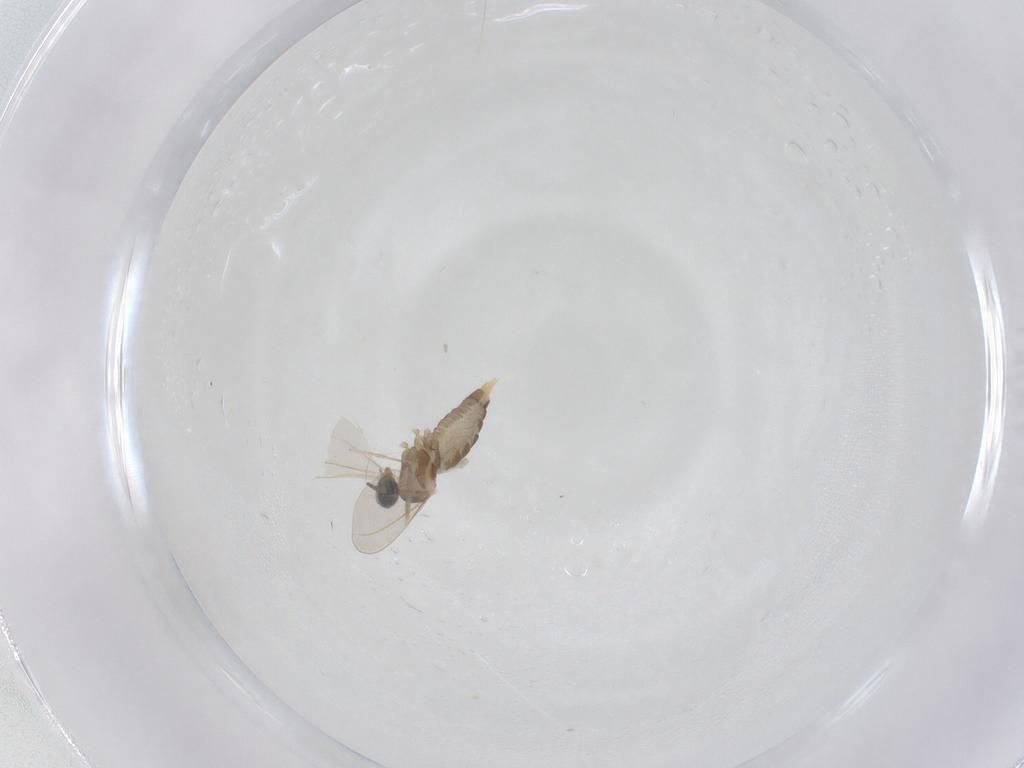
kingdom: Animalia
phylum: Arthropoda
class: Insecta
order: Diptera
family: Cecidomyiidae
